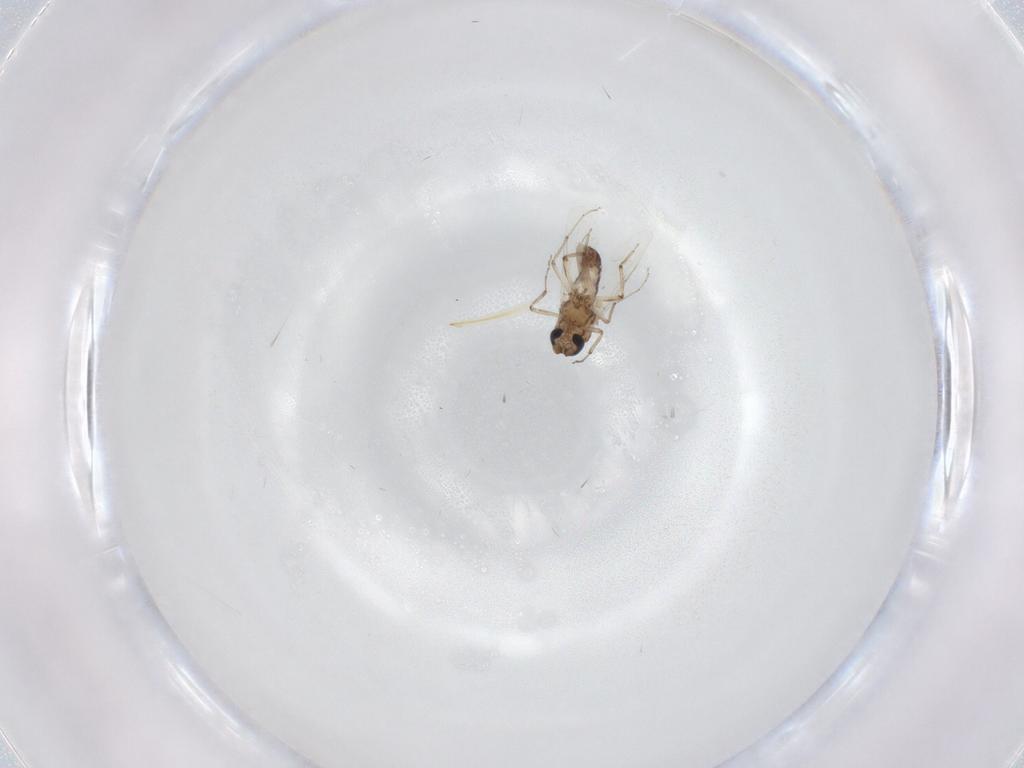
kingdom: Animalia
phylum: Arthropoda
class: Insecta
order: Diptera
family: Ceratopogonidae
